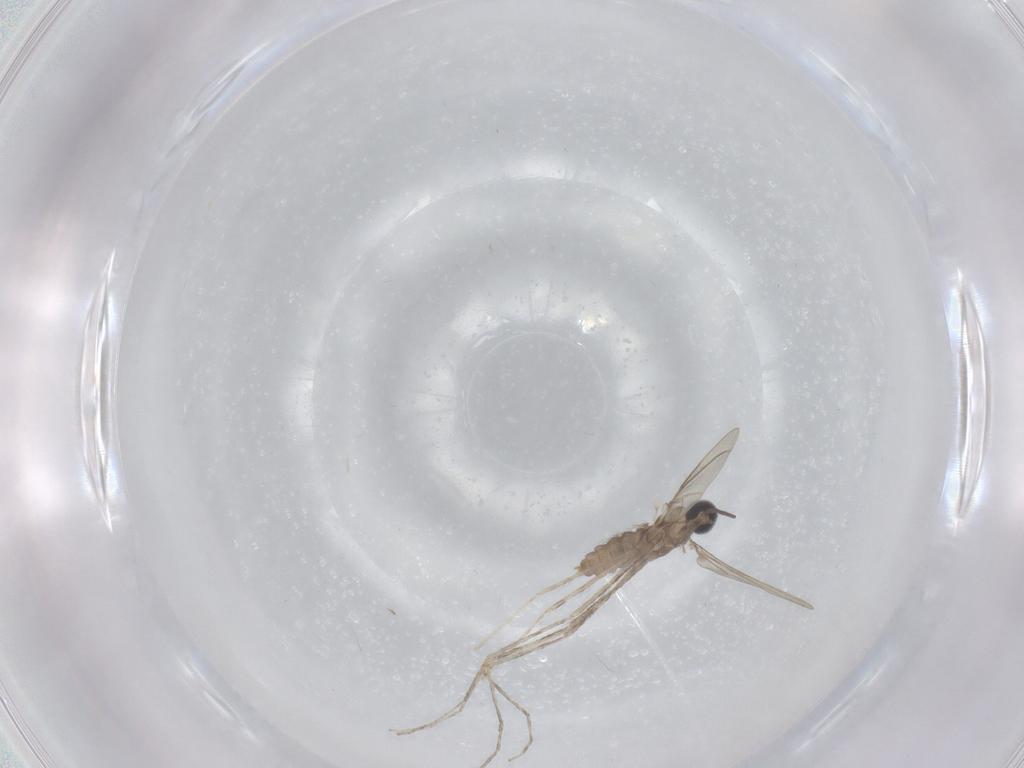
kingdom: Animalia
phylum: Arthropoda
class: Insecta
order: Diptera
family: Cecidomyiidae
